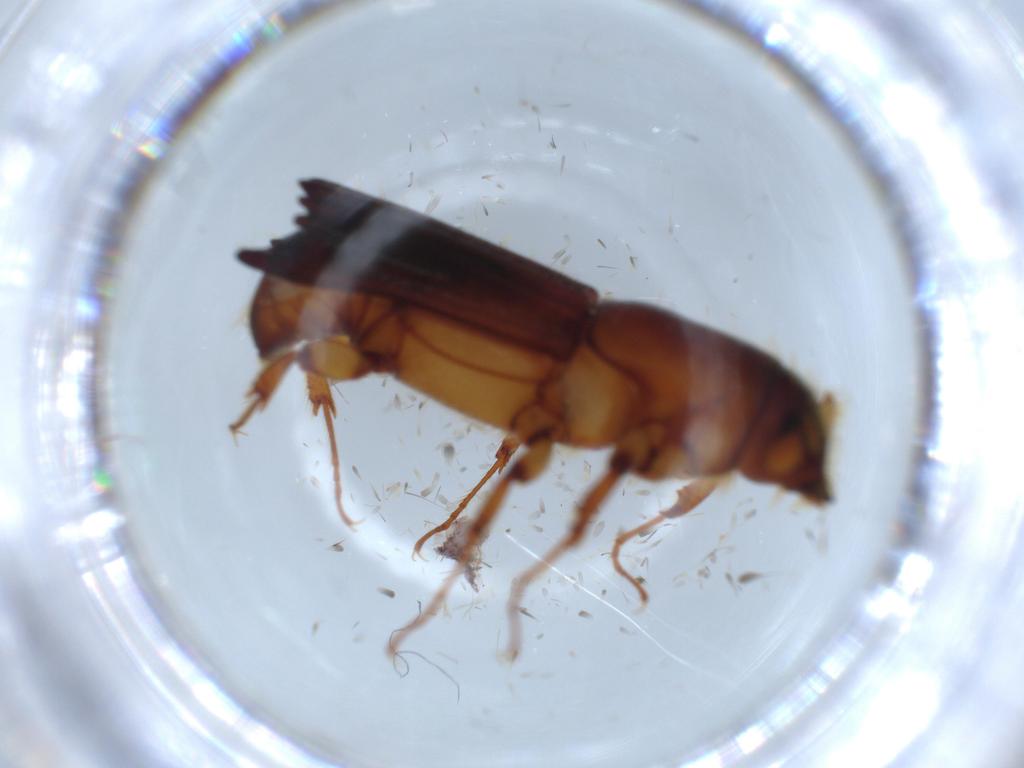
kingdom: Animalia
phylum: Arthropoda
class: Insecta
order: Coleoptera
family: Curculionidae
